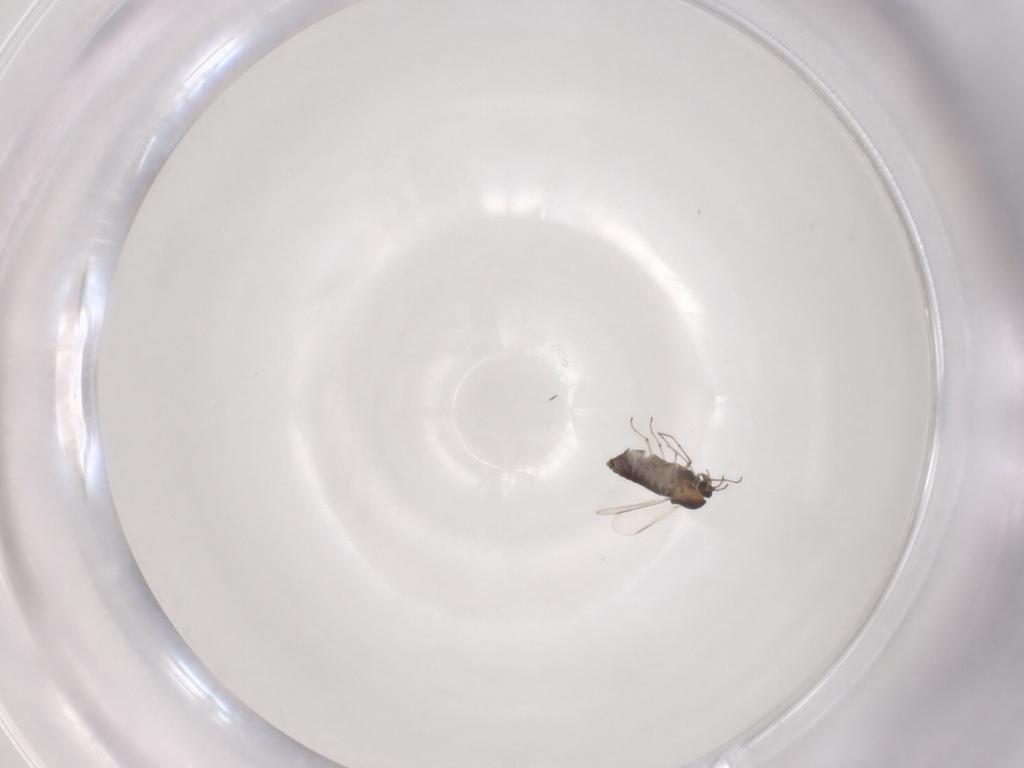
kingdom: Animalia
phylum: Arthropoda
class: Insecta
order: Diptera
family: Chironomidae
